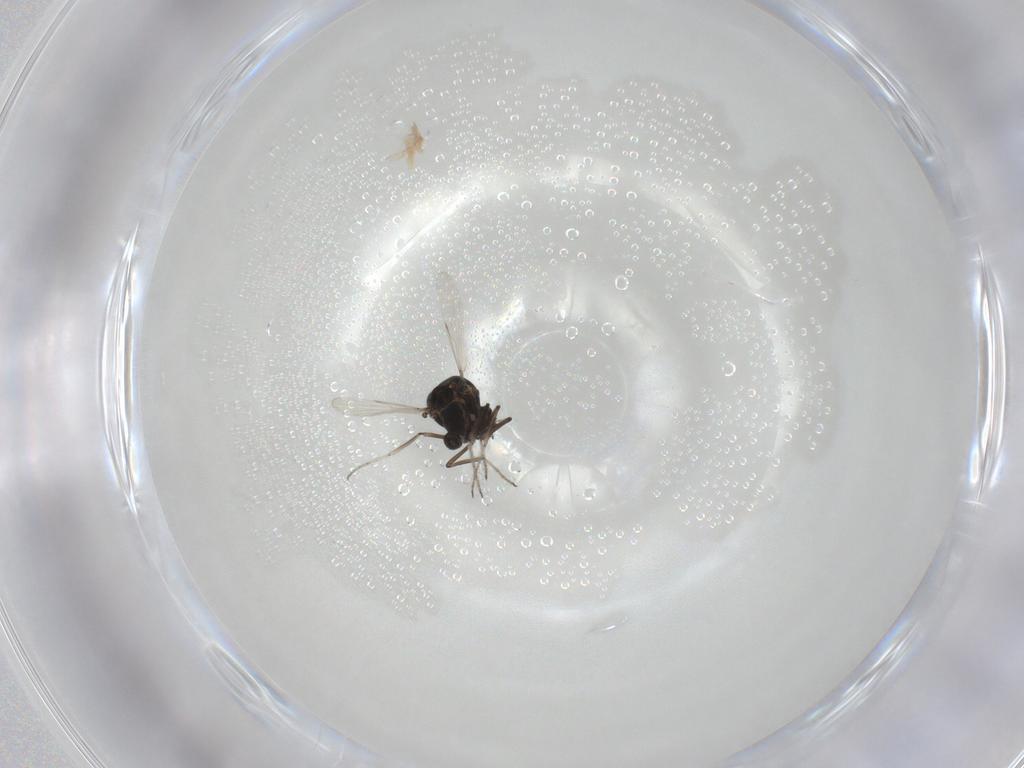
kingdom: Animalia
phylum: Arthropoda
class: Insecta
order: Diptera
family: Ceratopogonidae
